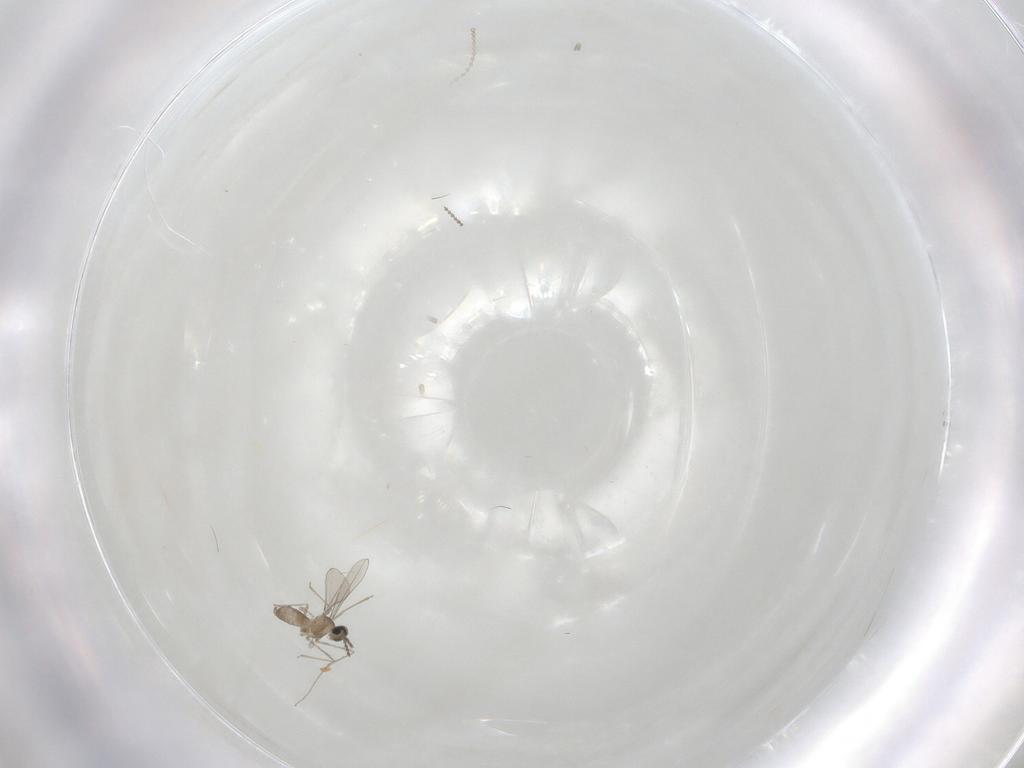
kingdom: Animalia
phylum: Arthropoda
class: Insecta
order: Diptera
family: Cecidomyiidae
